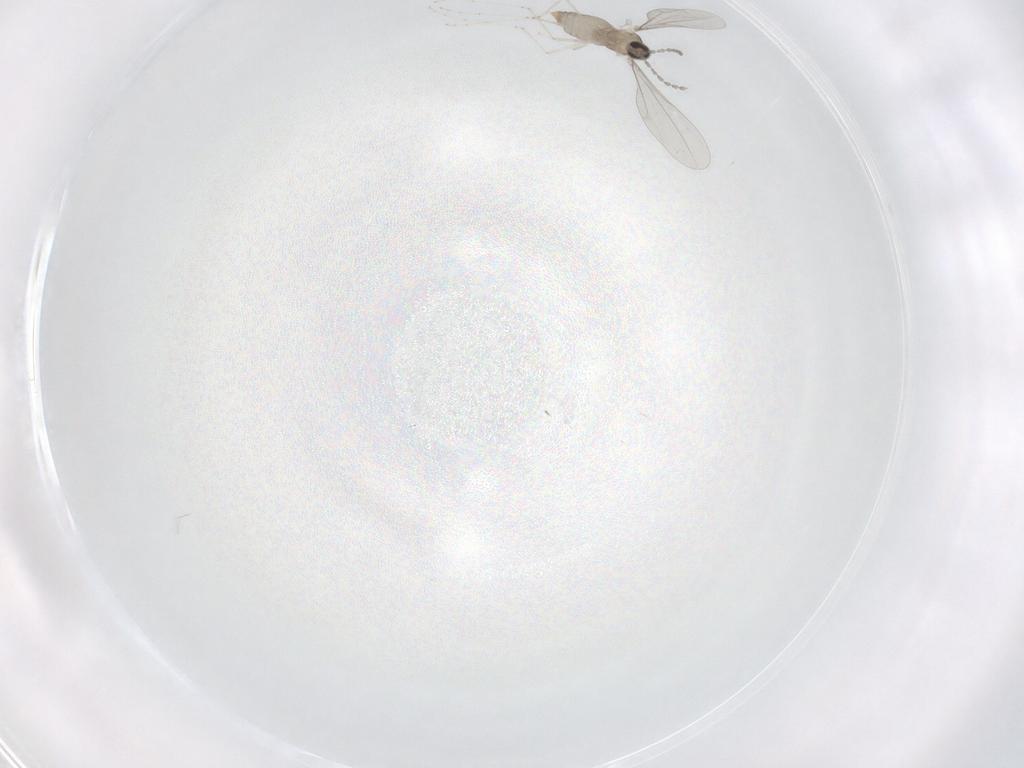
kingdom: Animalia
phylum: Arthropoda
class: Insecta
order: Diptera
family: Cecidomyiidae
